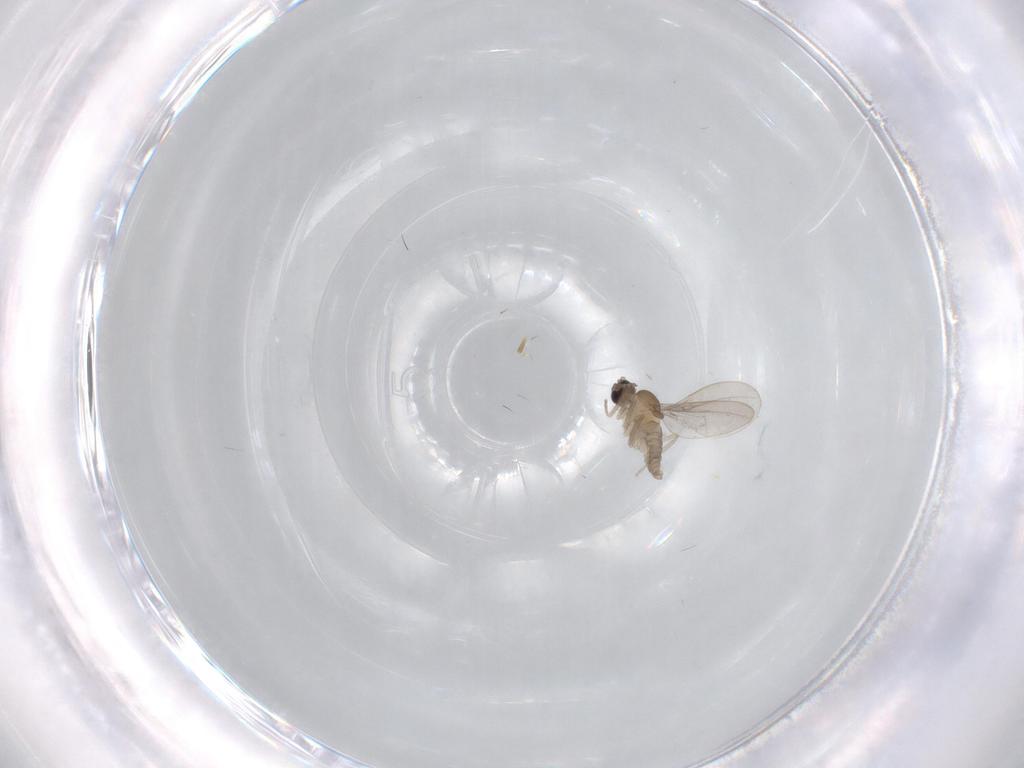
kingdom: Animalia
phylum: Arthropoda
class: Insecta
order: Diptera
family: Cecidomyiidae
